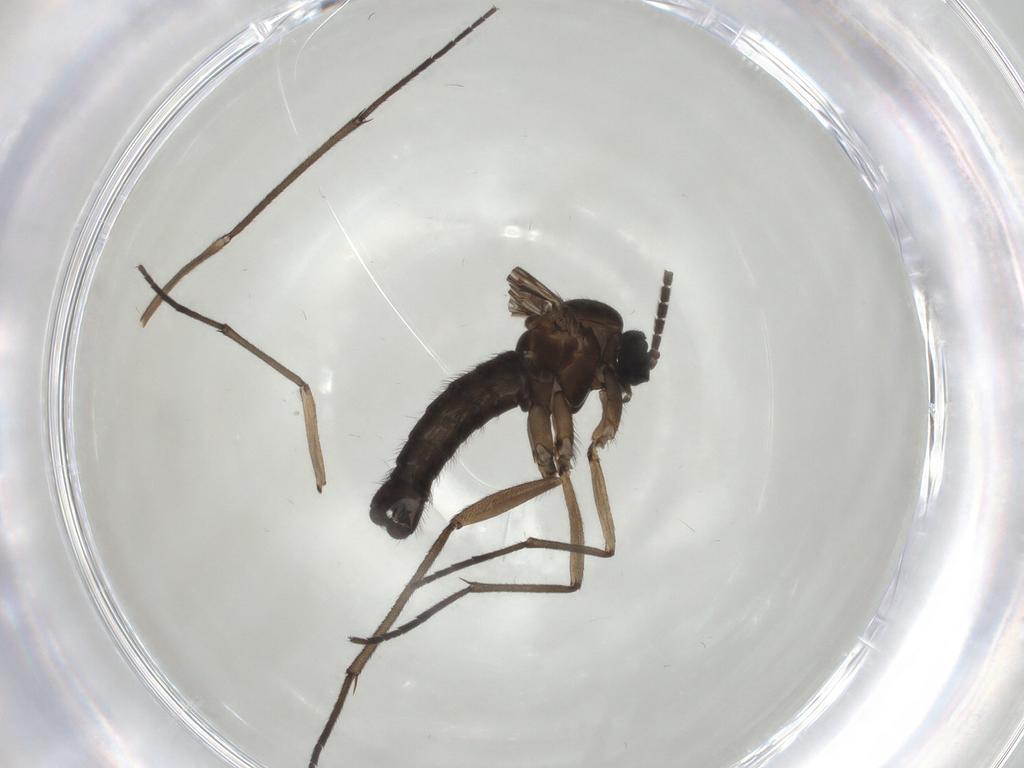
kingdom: Animalia
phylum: Arthropoda
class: Insecta
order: Diptera
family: Sciaridae
